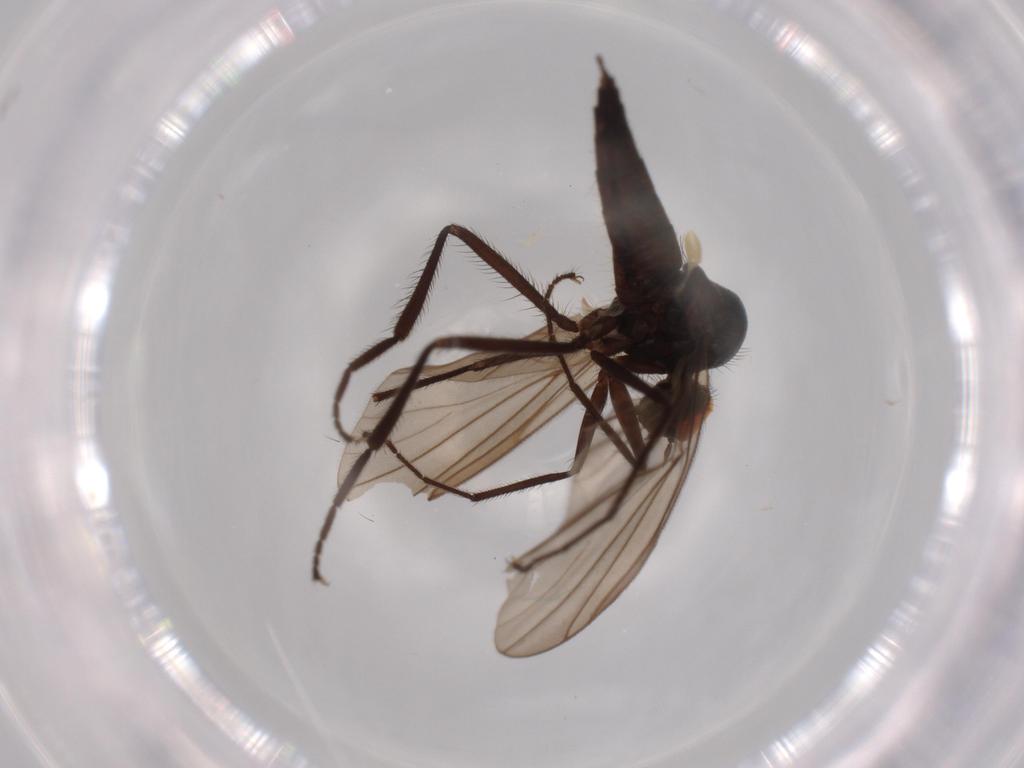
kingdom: Animalia
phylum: Arthropoda
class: Insecta
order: Diptera
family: Hybotidae
